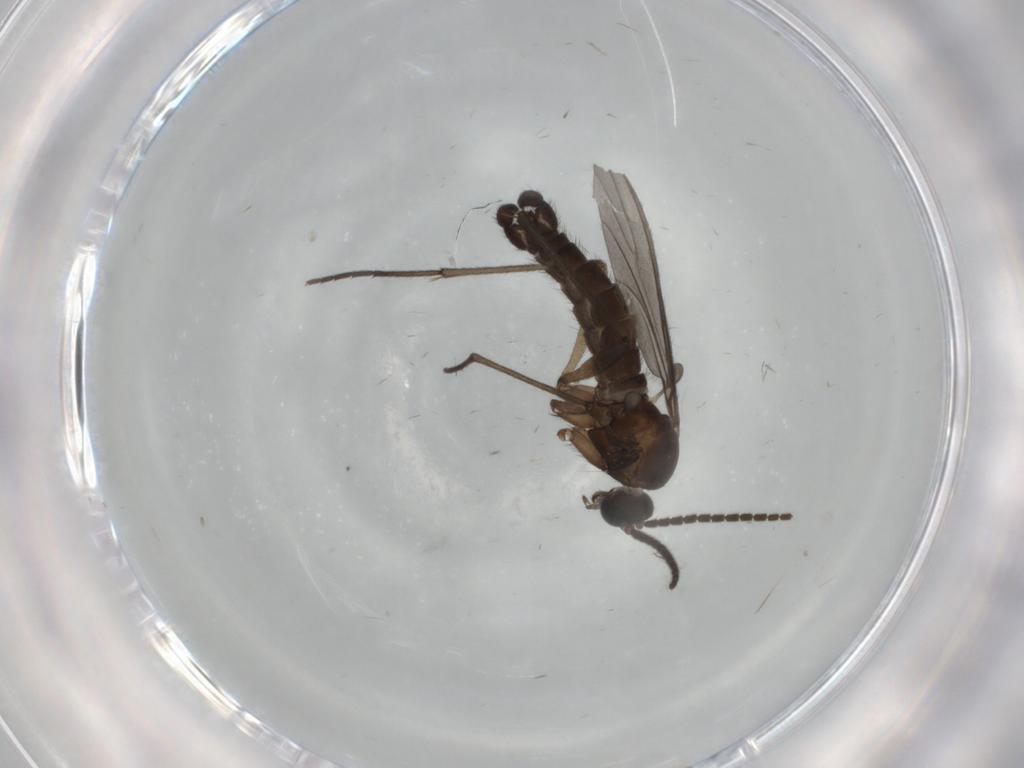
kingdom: Animalia
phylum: Arthropoda
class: Insecta
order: Diptera
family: Sciaridae
